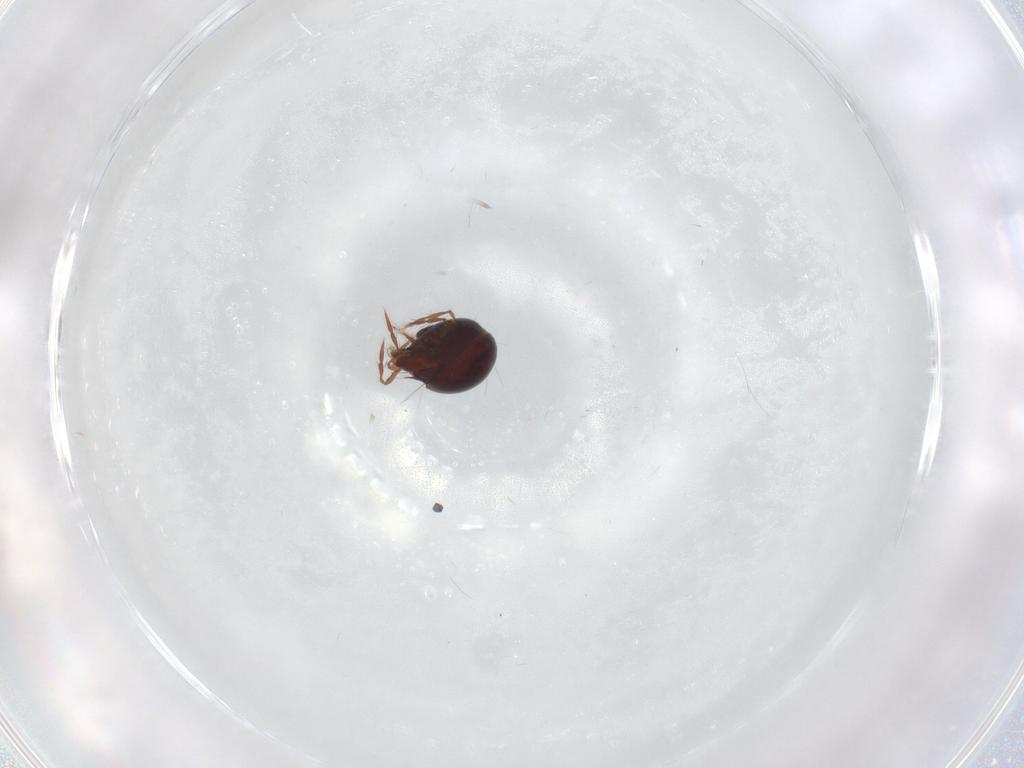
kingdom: Animalia
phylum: Arthropoda
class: Arachnida
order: Sarcoptiformes
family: Ceratoppiidae
